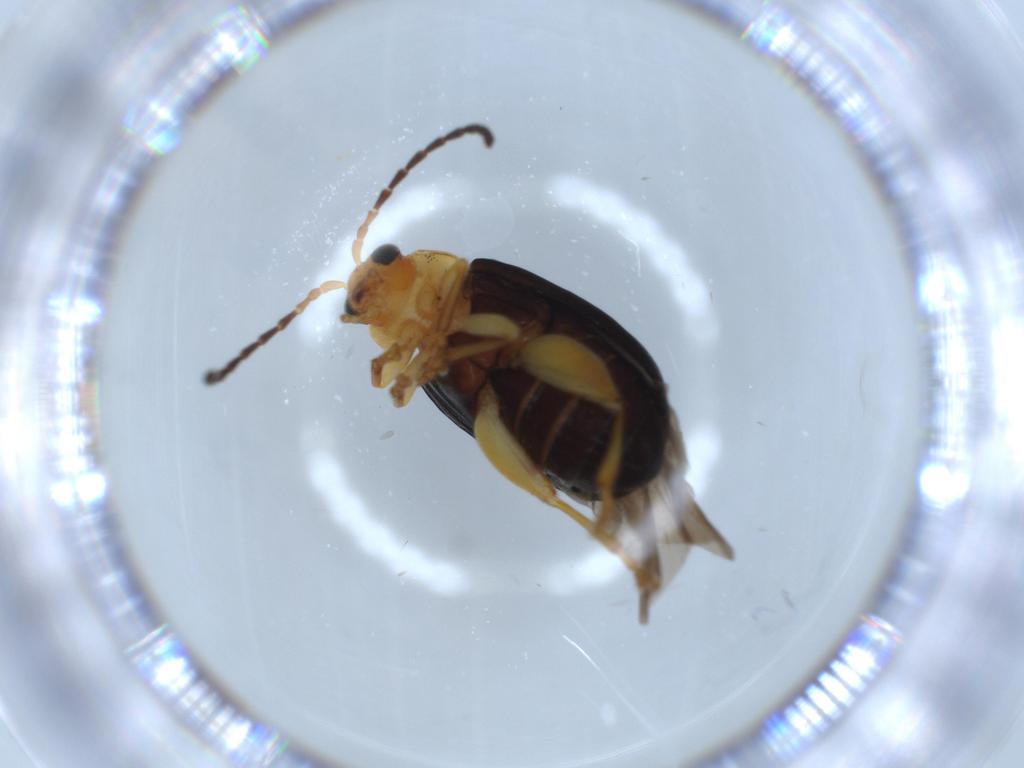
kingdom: Animalia
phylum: Arthropoda
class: Insecta
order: Coleoptera
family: Chrysomelidae
